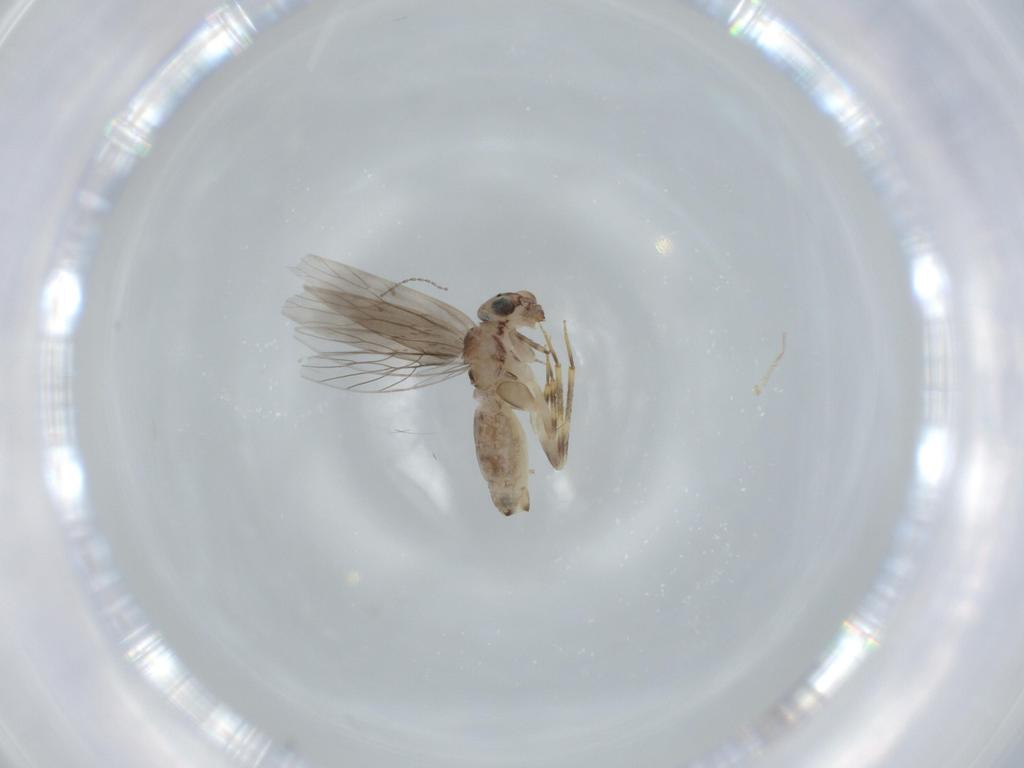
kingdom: Animalia
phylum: Arthropoda
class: Insecta
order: Psocodea
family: Lepidopsocidae
